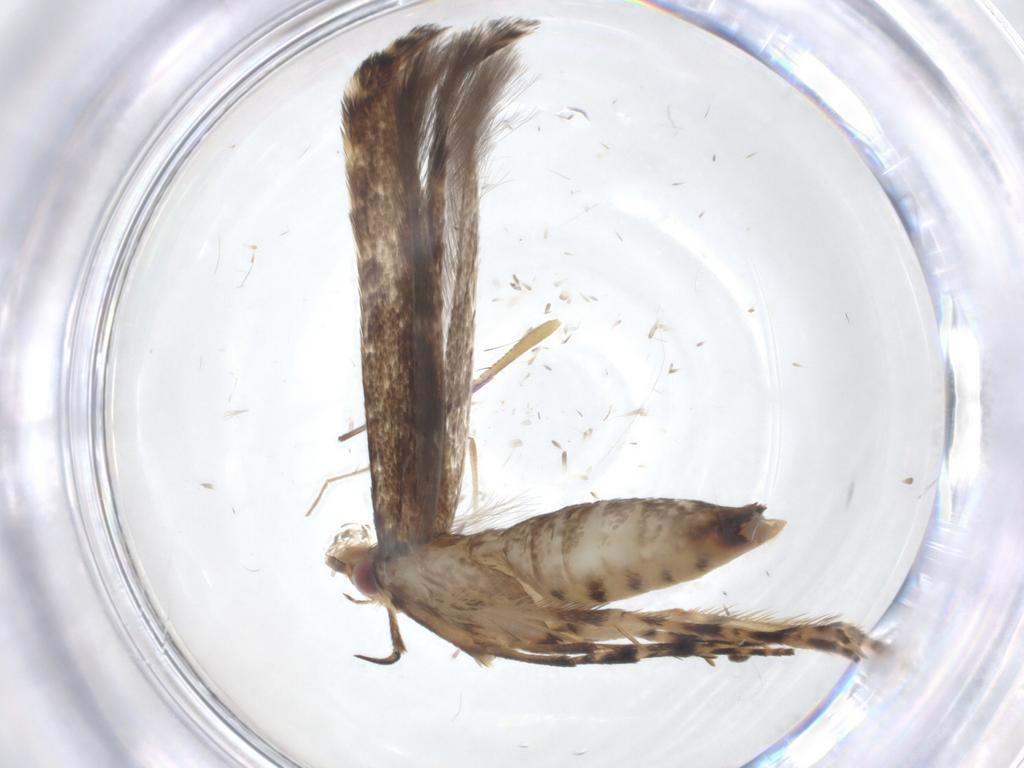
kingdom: Animalia
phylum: Arthropoda
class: Insecta
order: Lepidoptera
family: Gracillariidae
